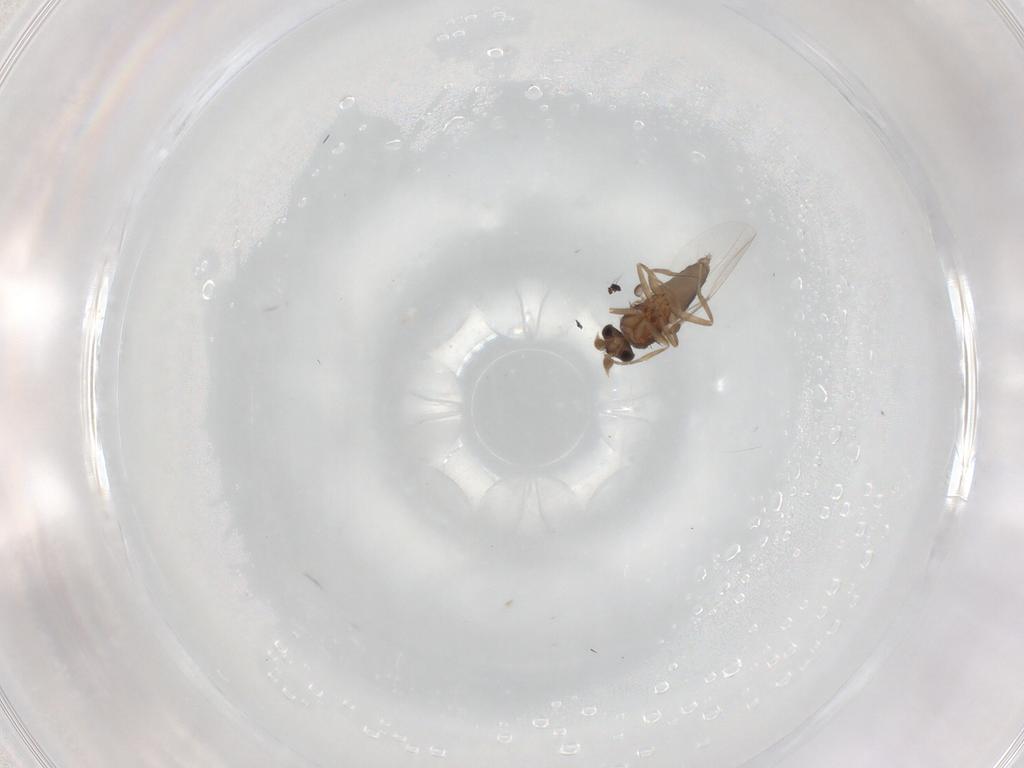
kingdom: Animalia
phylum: Arthropoda
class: Insecta
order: Diptera
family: Phoridae
